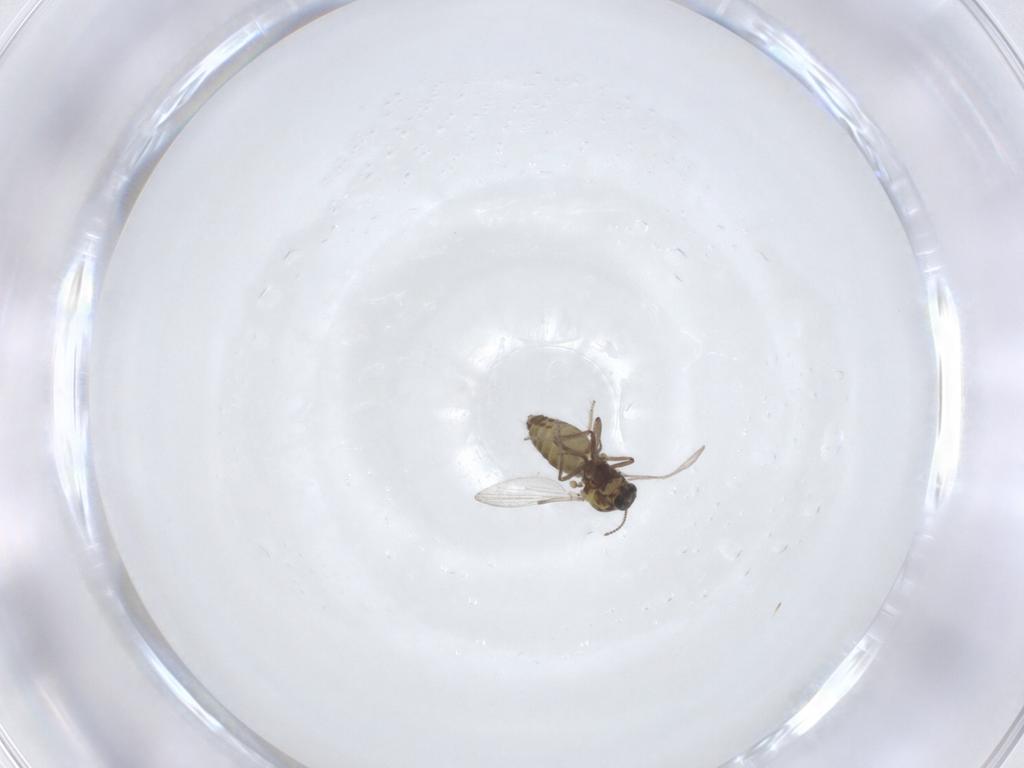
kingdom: Animalia
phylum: Arthropoda
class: Insecta
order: Diptera
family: Ceratopogonidae
